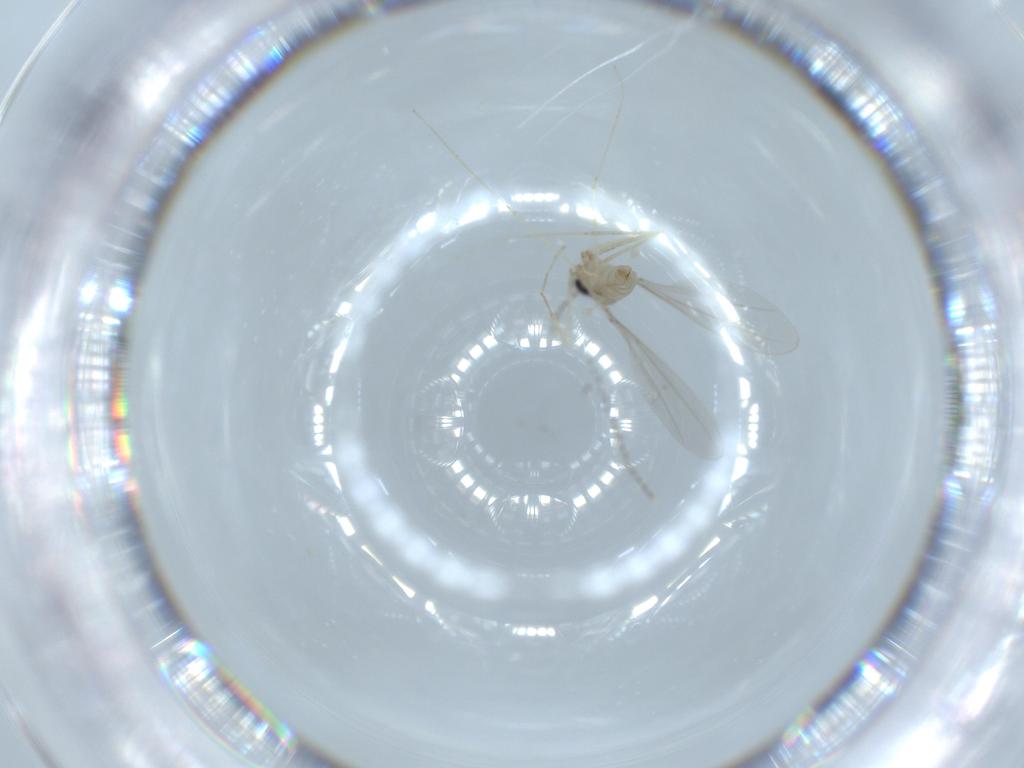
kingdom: Animalia
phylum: Arthropoda
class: Insecta
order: Diptera
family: Cecidomyiidae
